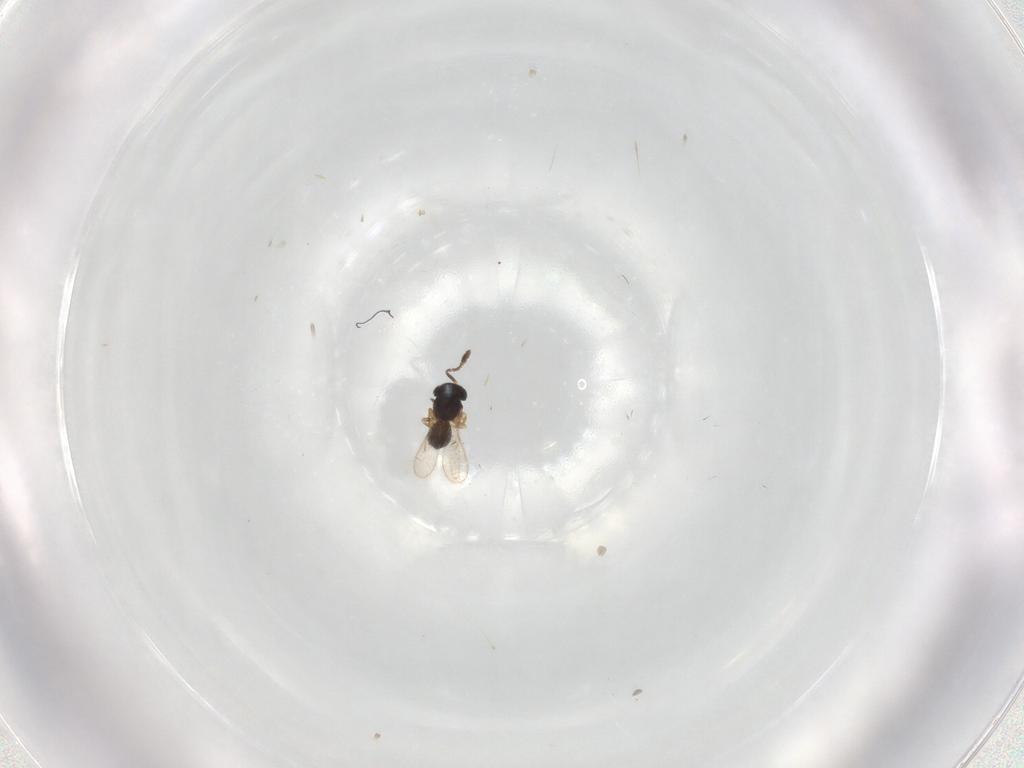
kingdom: Animalia
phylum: Arthropoda
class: Insecta
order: Hymenoptera
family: Scelionidae
